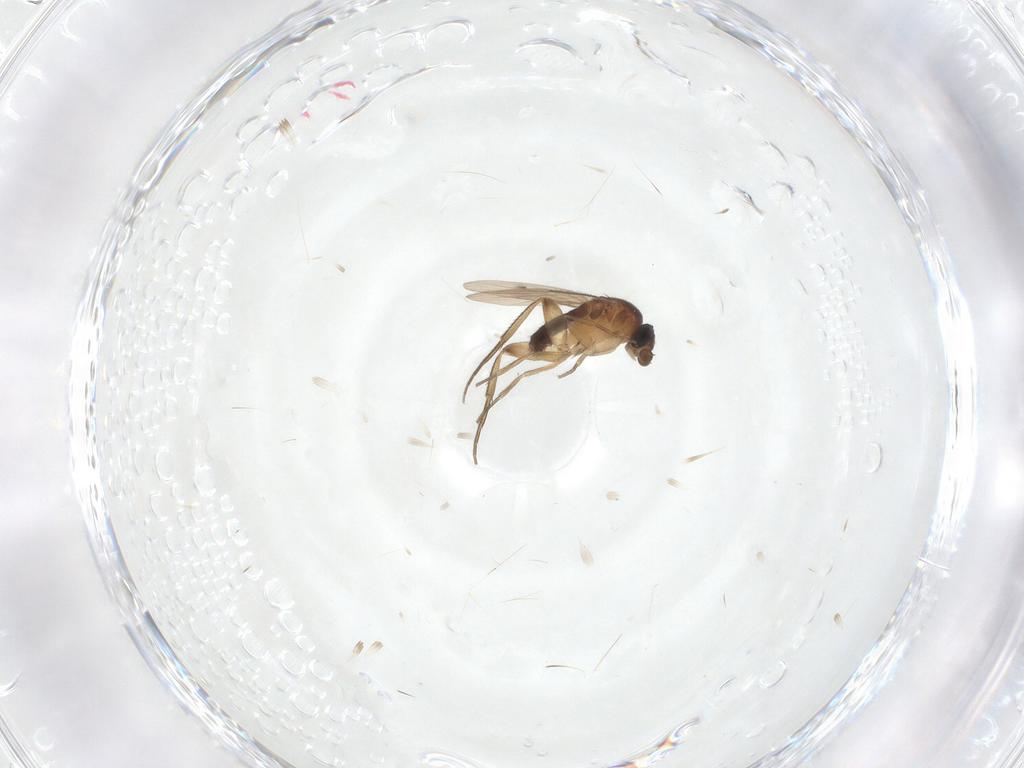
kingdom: Animalia
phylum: Arthropoda
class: Insecta
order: Diptera
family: Phoridae
